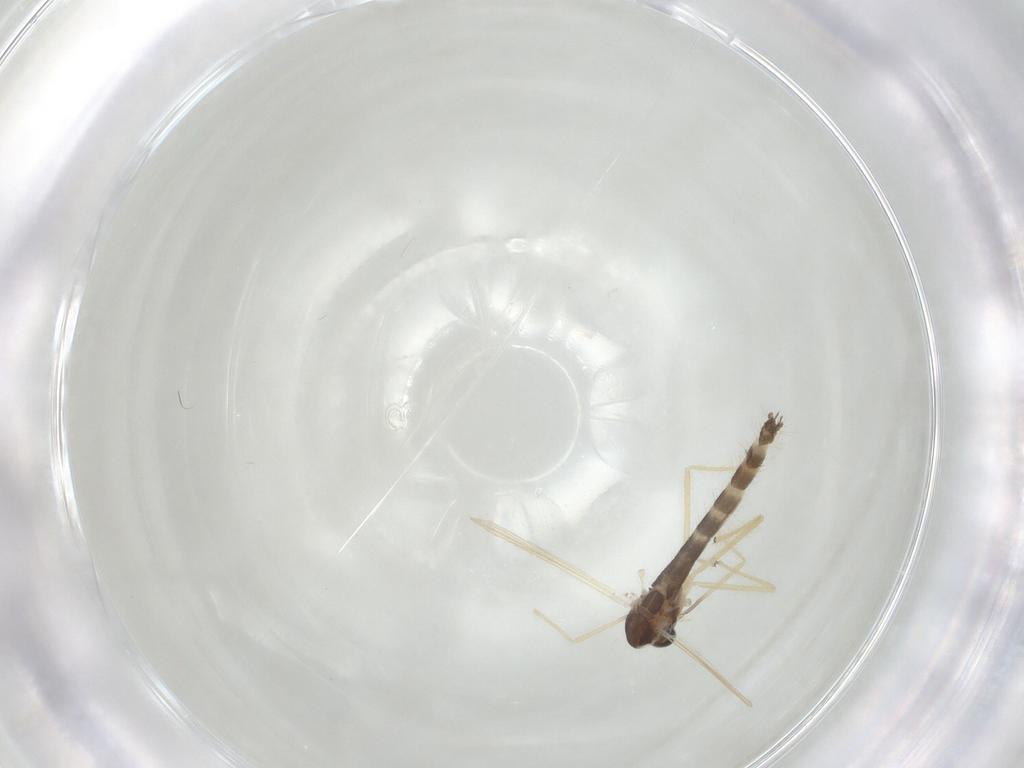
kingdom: Animalia
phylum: Arthropoda
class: Insecta
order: Diptera
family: Chironomidae
